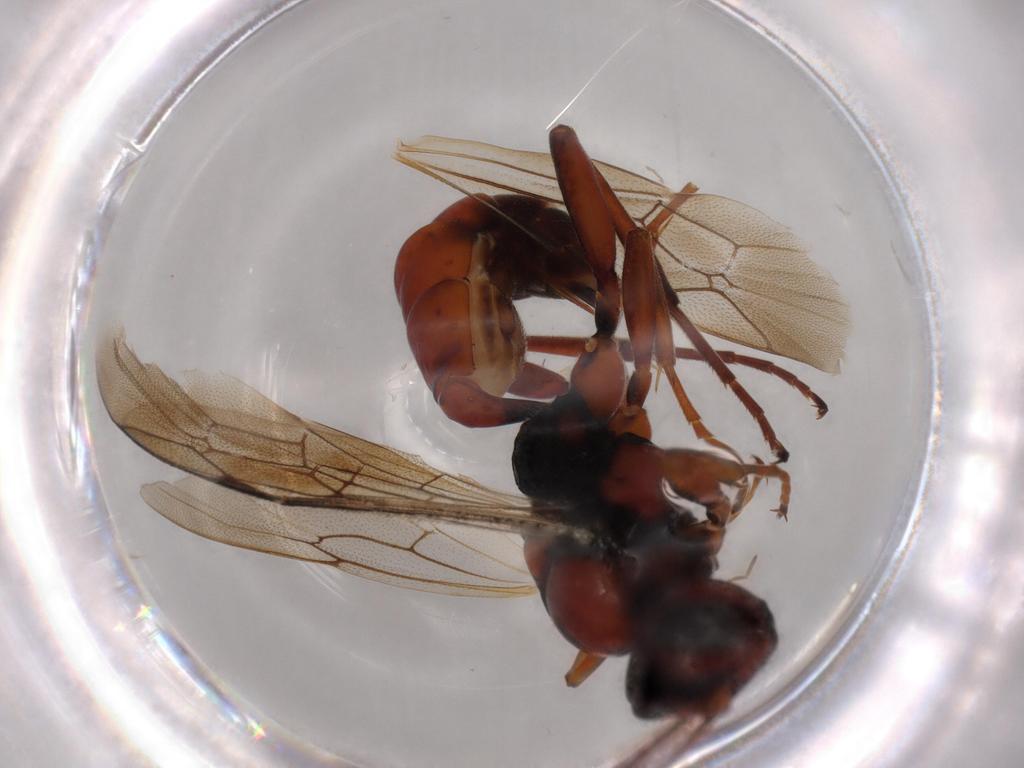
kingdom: Animalia
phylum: Arthropoda
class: Insecta
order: Hymenoptera
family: Ichneumonidae
